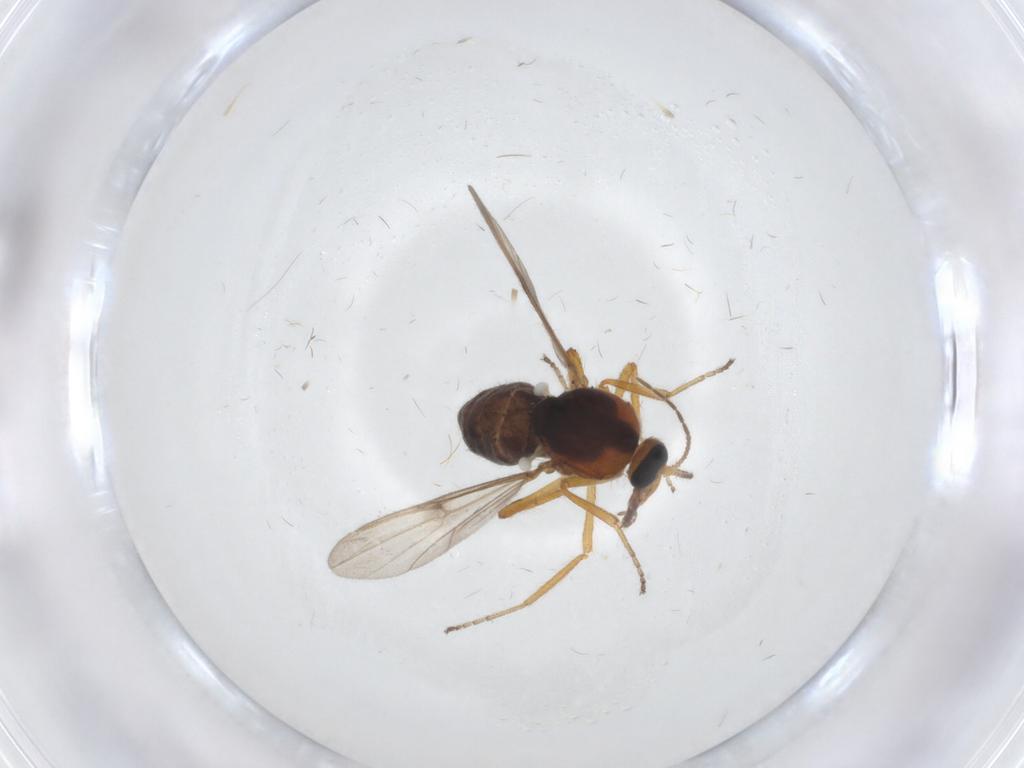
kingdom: Animalia
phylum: Arthropoda
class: Insecta
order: Diptera
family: Ceratopogonidae
